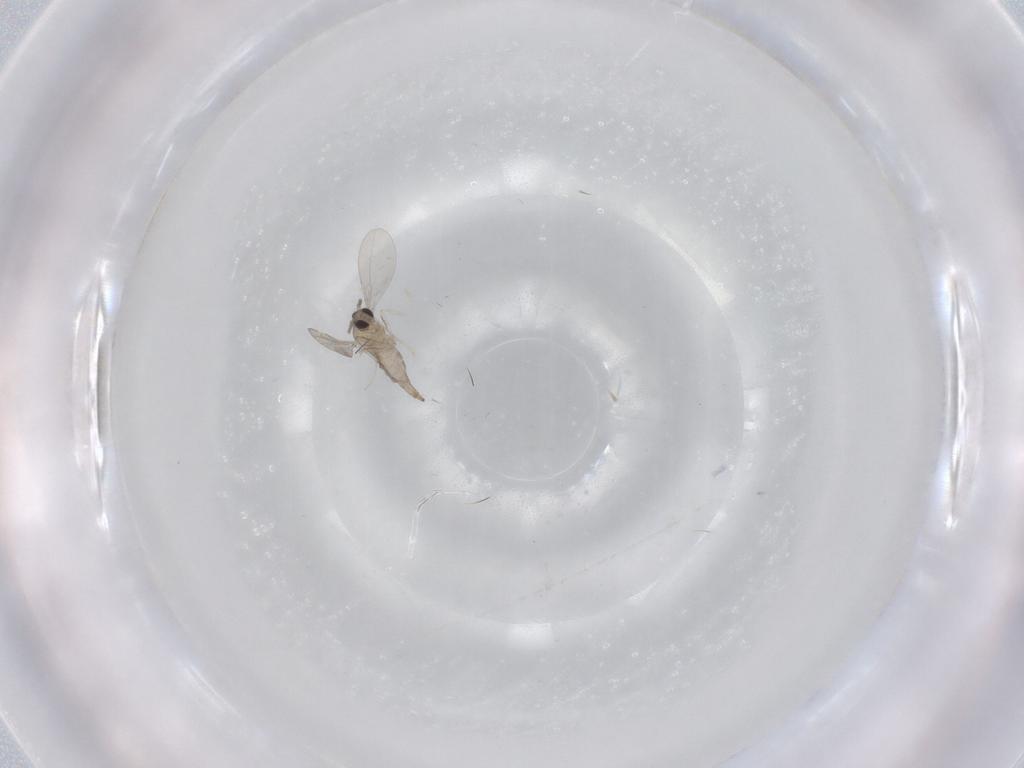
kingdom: Animalia
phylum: Arthropoda
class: Insecta
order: Diptera
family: Cecidomyiidae
